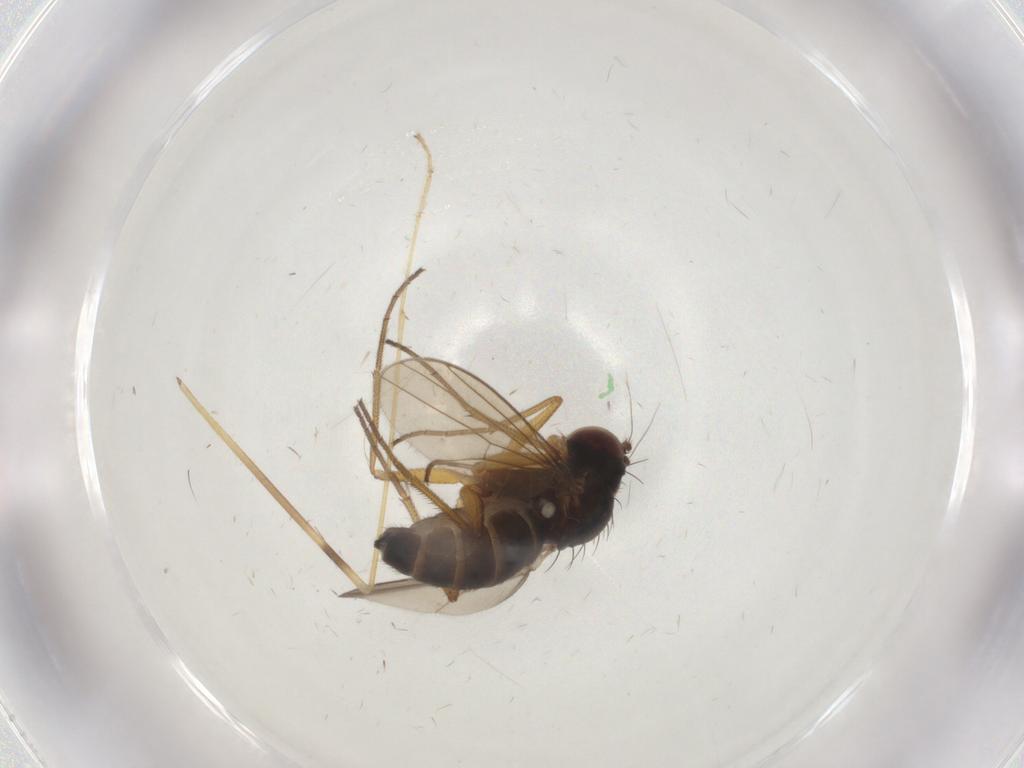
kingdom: Animalia
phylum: Arthropoda
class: Insecta
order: Diptera
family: Dolichopodidae
